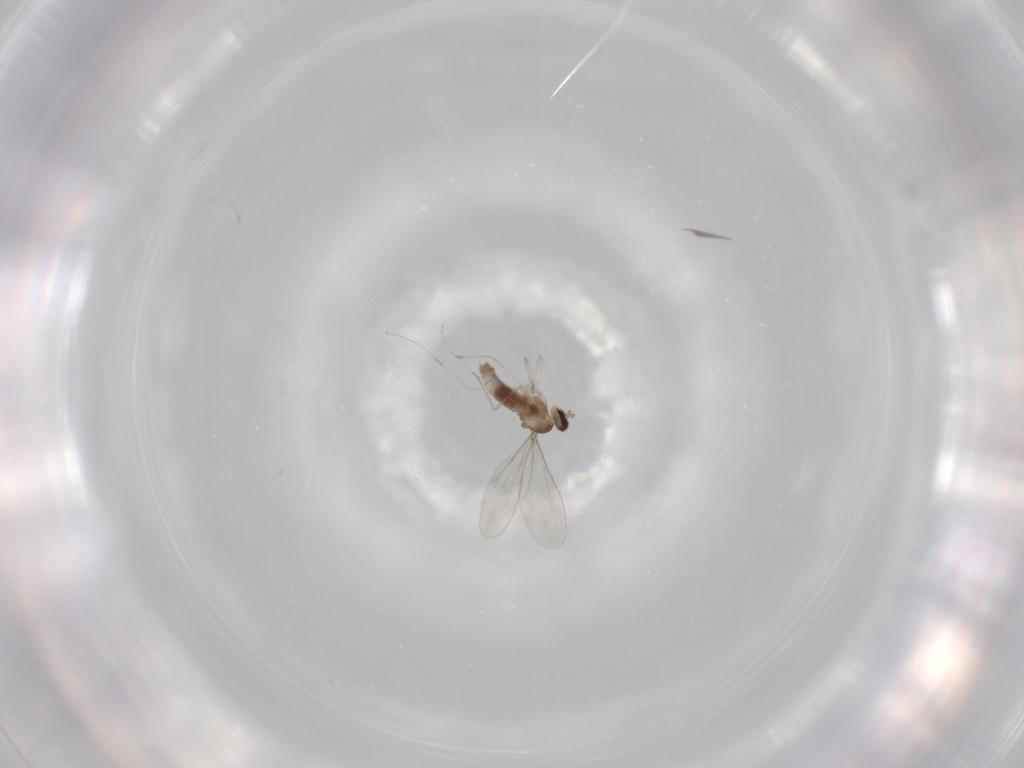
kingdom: Animalia
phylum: Arthropoda
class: Insecta
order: Diptera
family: Cecidomyiidae
